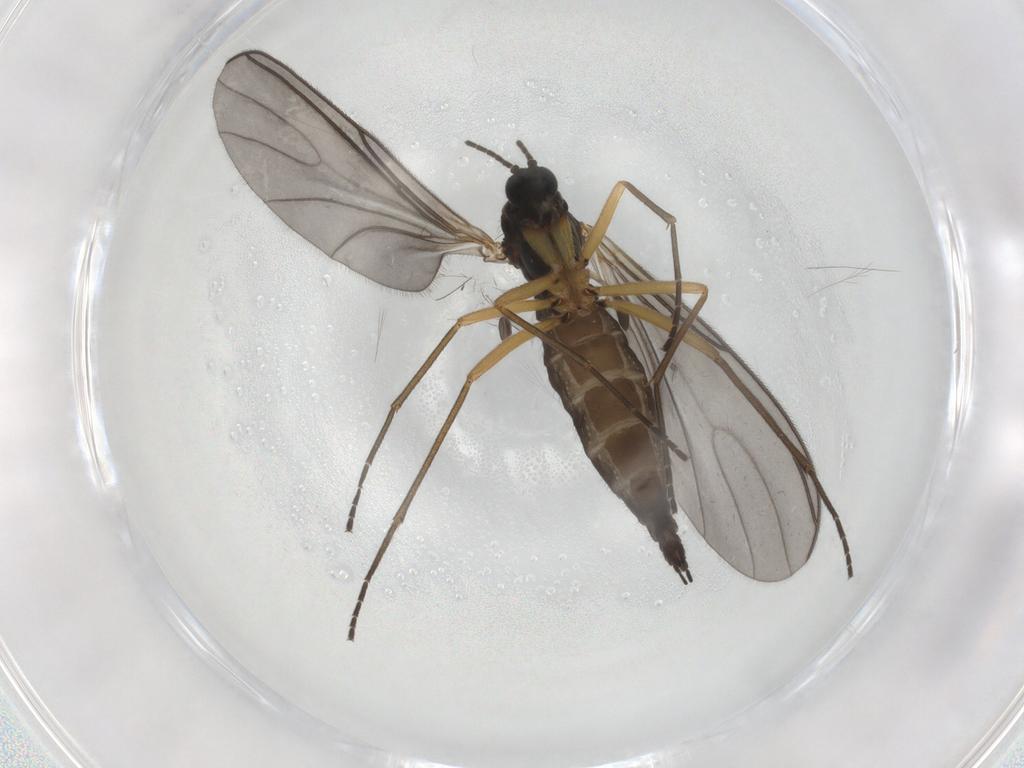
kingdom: Animalia
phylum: Arthropoda
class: Insecta
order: Diptera
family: Sciaridae
